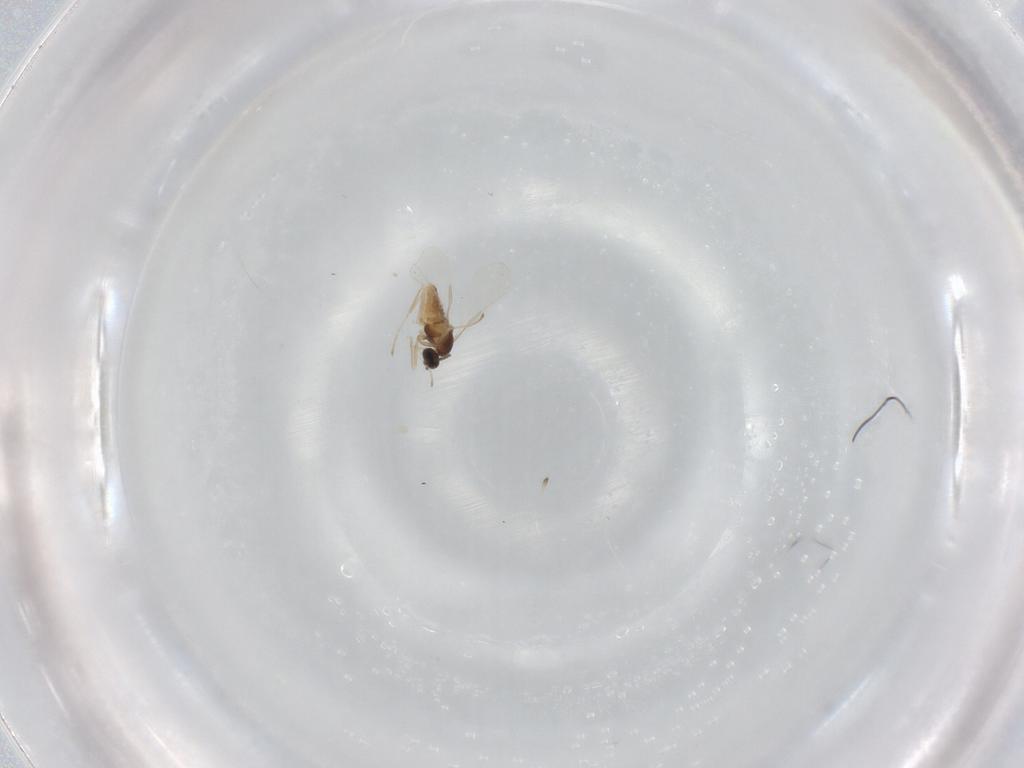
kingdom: Animalia
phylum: Arthropoda
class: Insecta
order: Diptera
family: Cecidomyiidae
